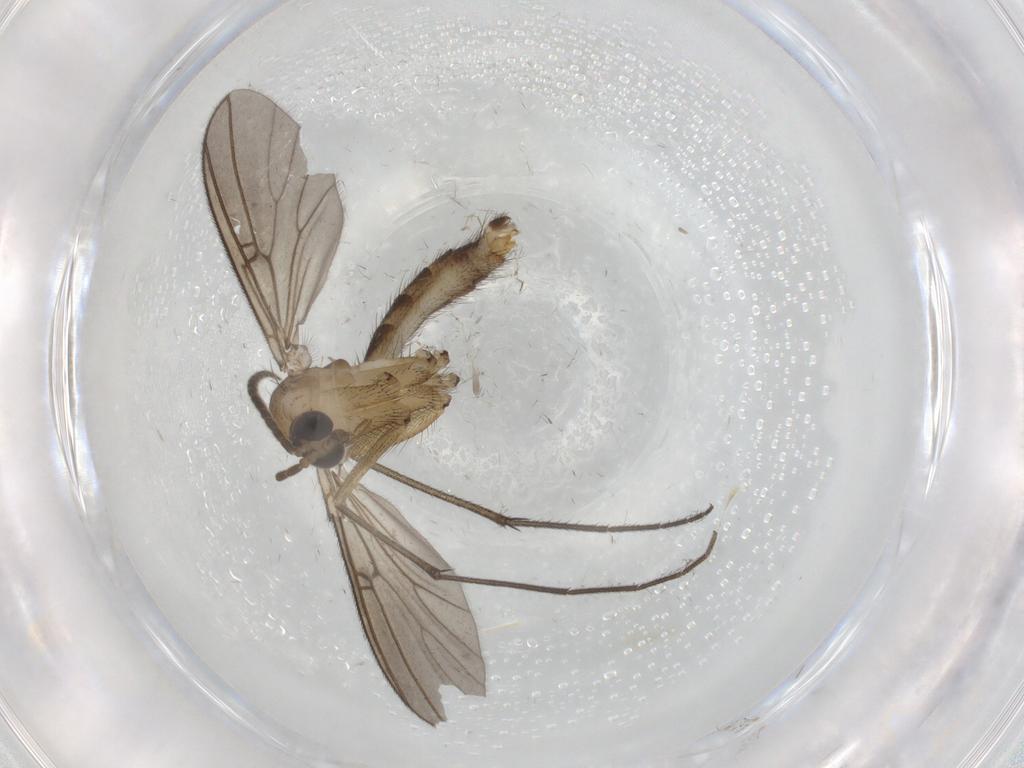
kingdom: Animalia
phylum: Arthropoda
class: Insecta
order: Diptera
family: Mycetophilidae
